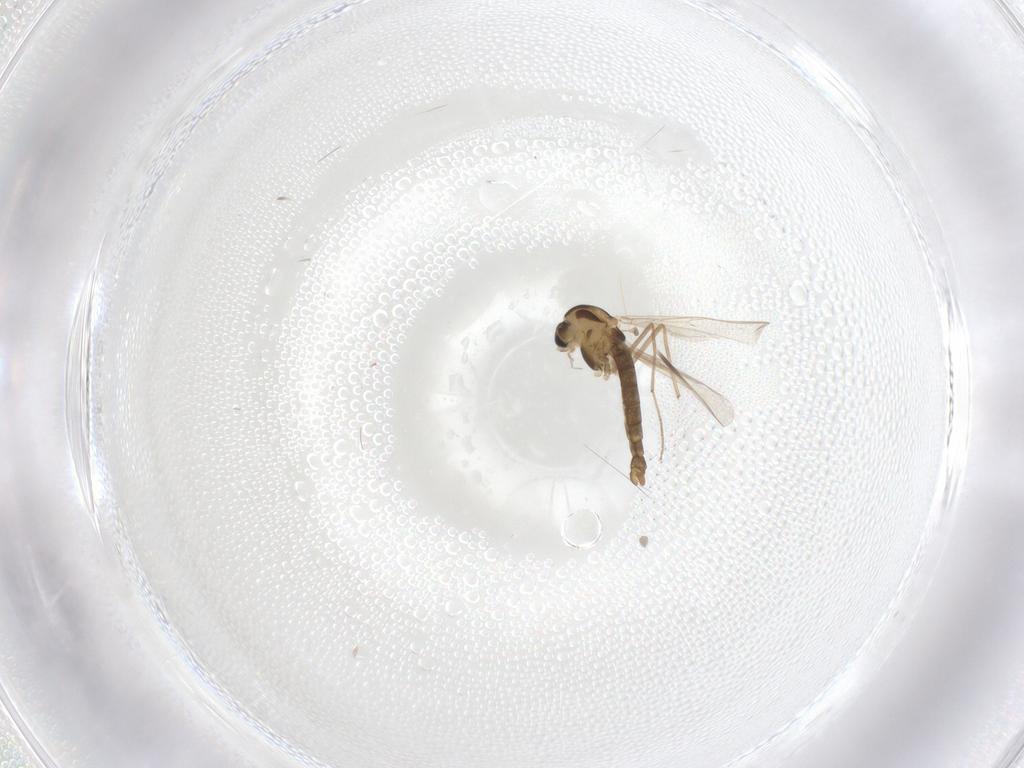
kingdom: Animalia
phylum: Arthropoda
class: Insecta
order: Diptera
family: Chironomidae
